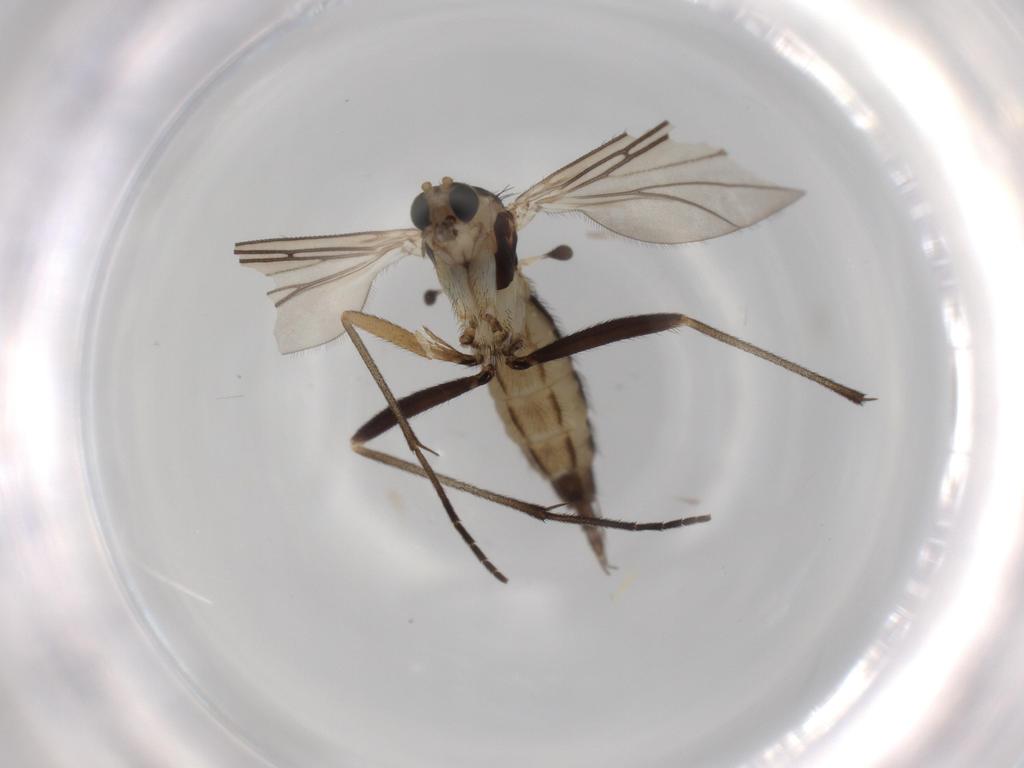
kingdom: Animalia
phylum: Arthropoda
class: Insecta
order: Diptera
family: Sciaridae
